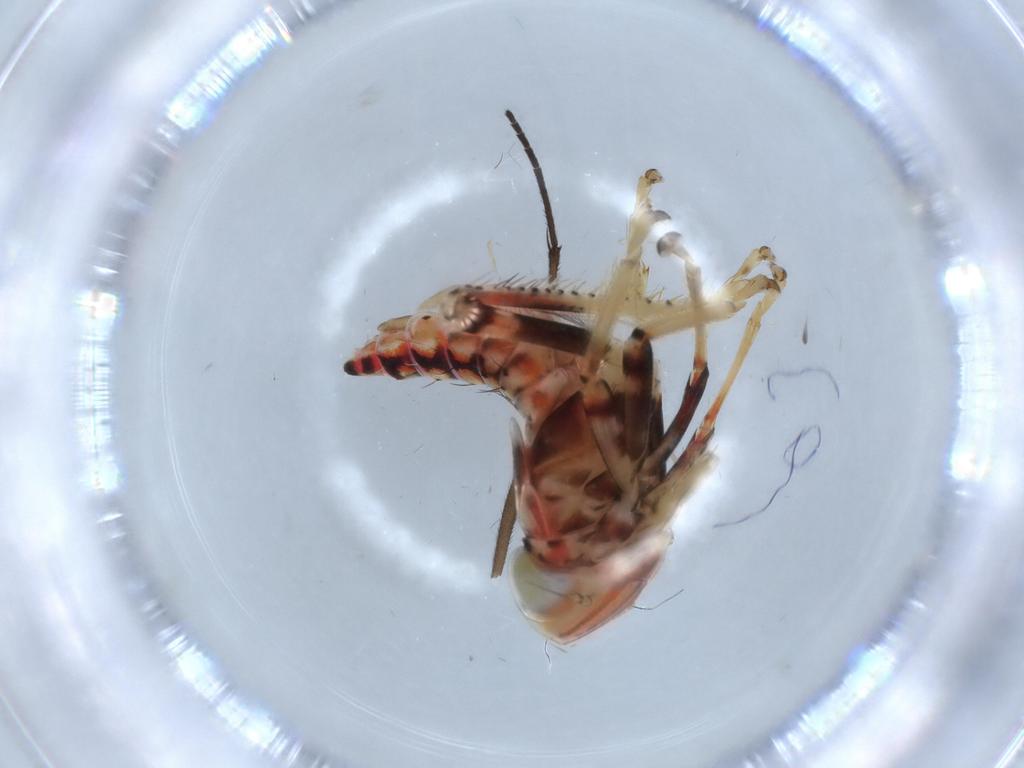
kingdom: Animalia
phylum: Arthropoda
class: Insecta
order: Hemiptera
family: Cicadellidae
